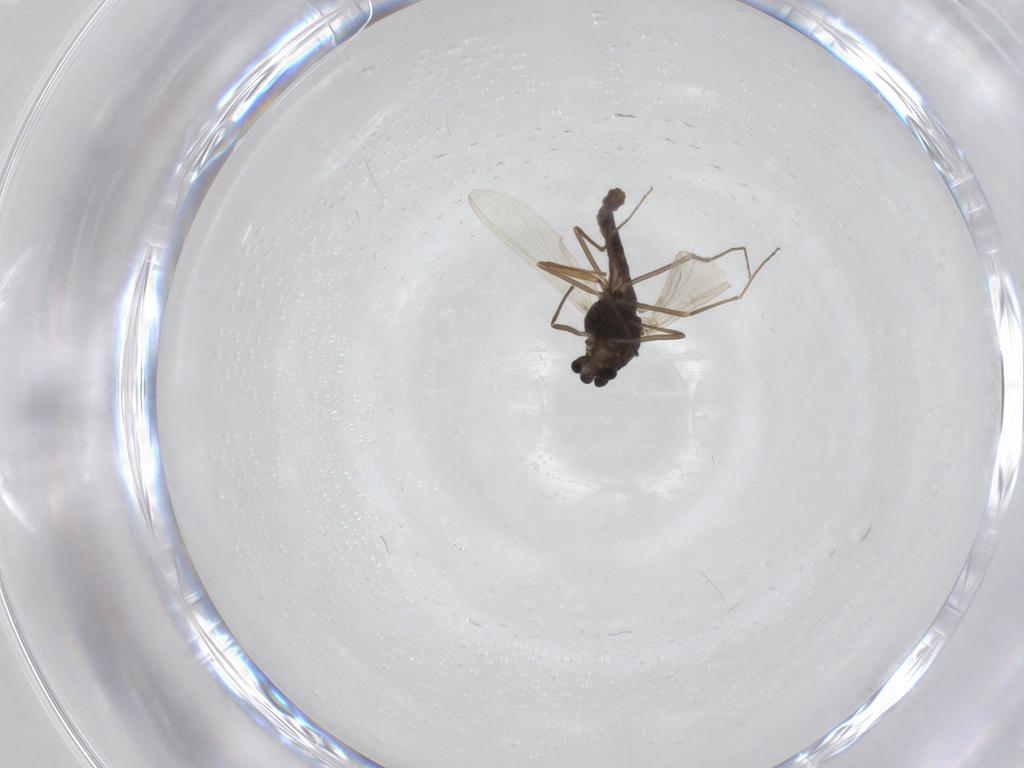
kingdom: Animalia
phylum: Arthropoda
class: Insecta
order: Diptera
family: Chironomidae
